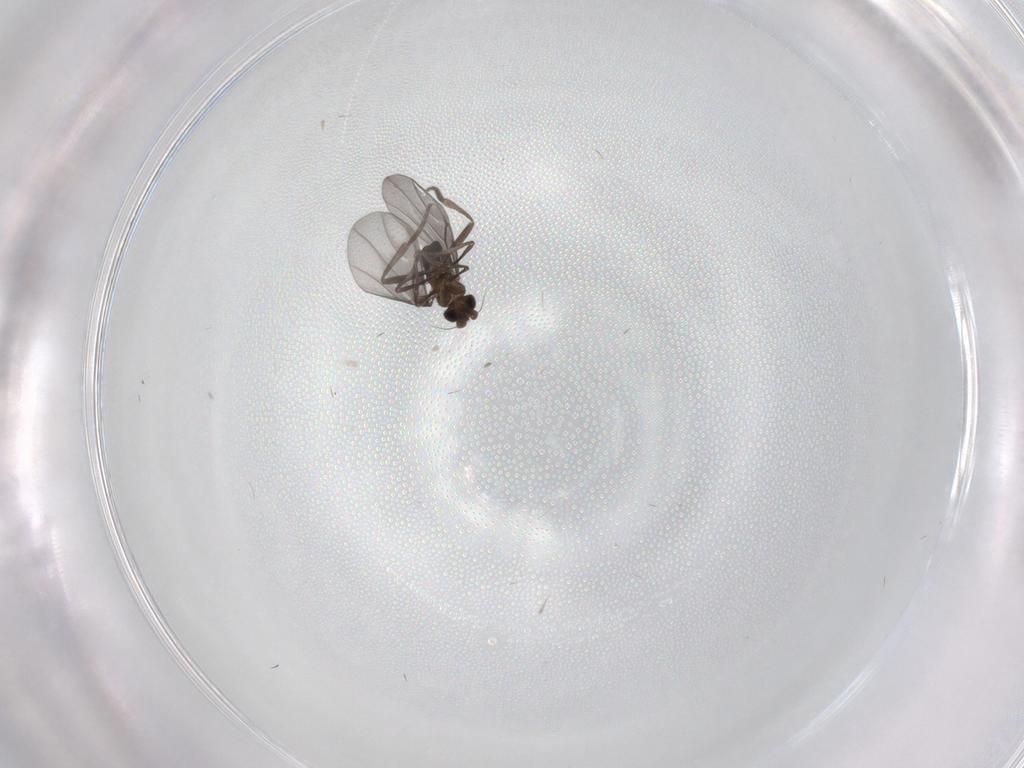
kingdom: Animalia
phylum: Arthropoda
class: Insecta
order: Diptera
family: Phoridae
